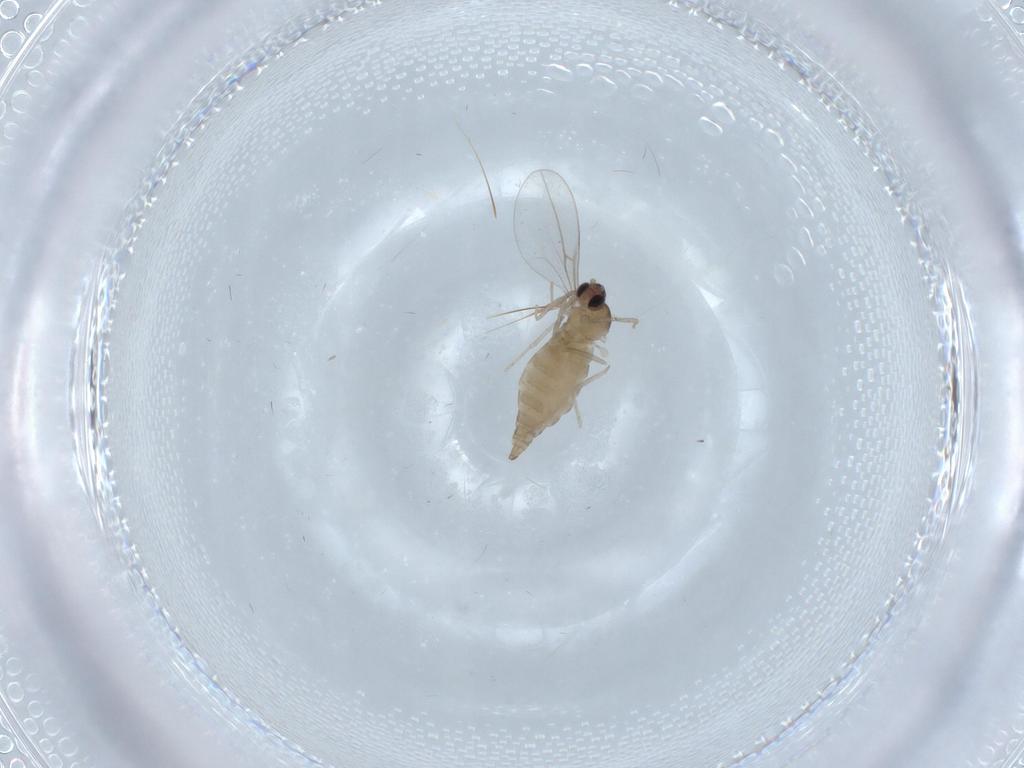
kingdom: Animalia
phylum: Arthropoda
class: Insecta
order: Diptera
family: Cecidomyiidae
